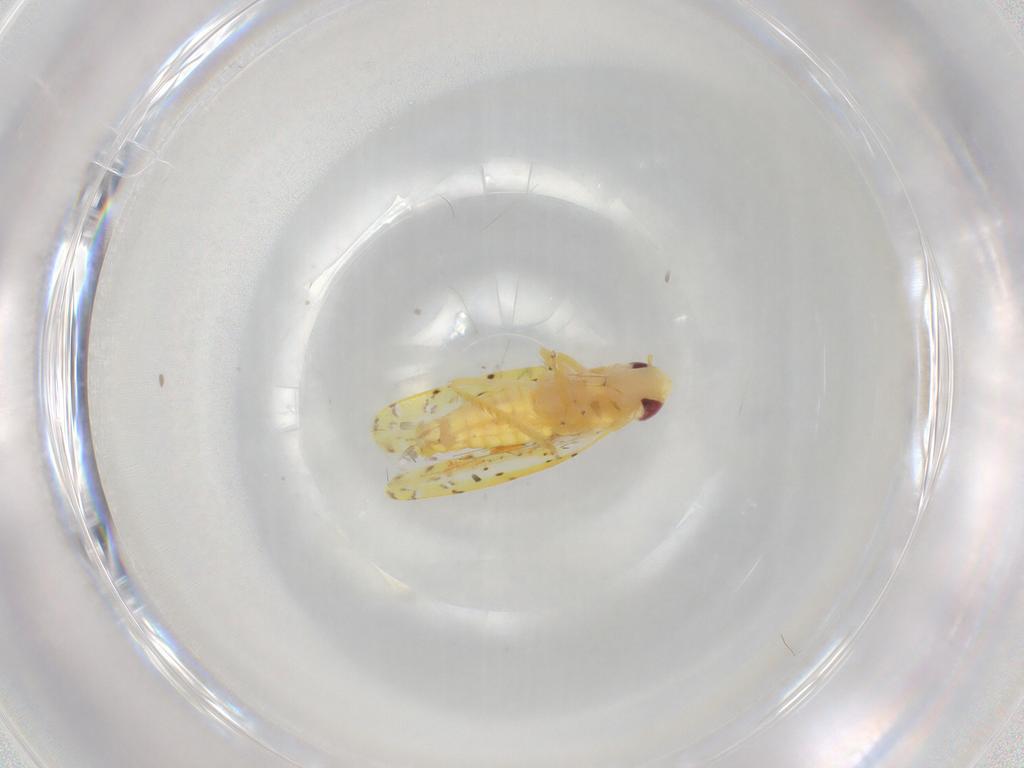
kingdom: Animalia
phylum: Arthropoda
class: Insecta
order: Hemiptera
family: Cicadellidae
